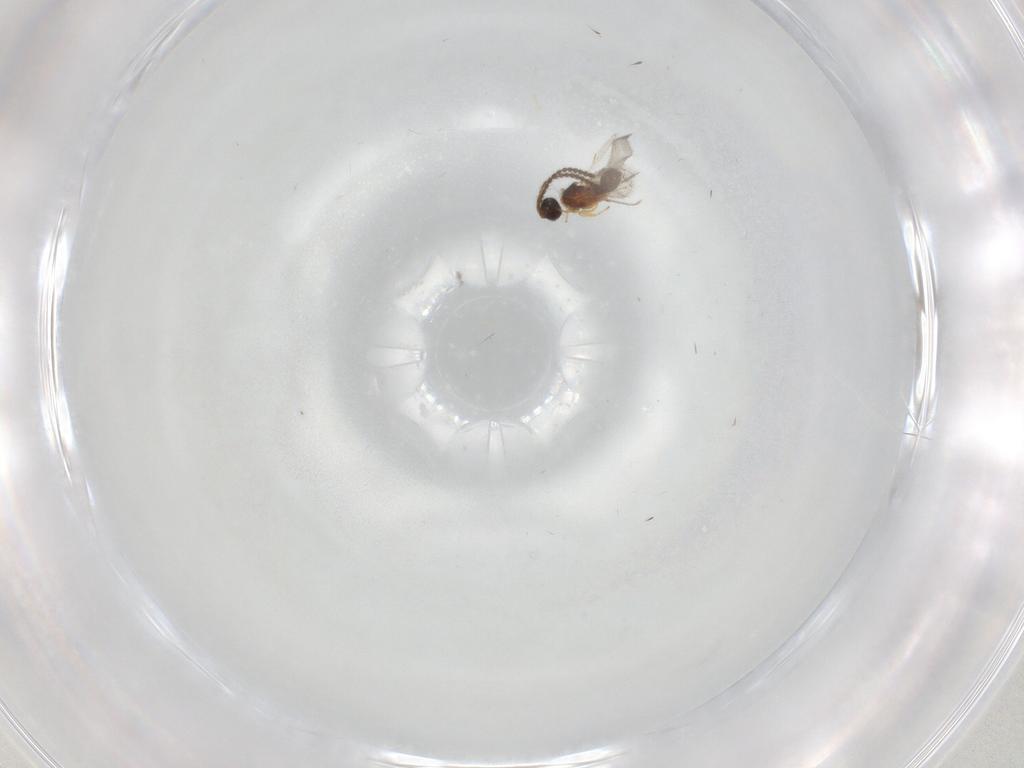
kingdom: Animalia
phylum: Arthropoda
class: Insecta
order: Hymenoptera
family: Diapriidae
